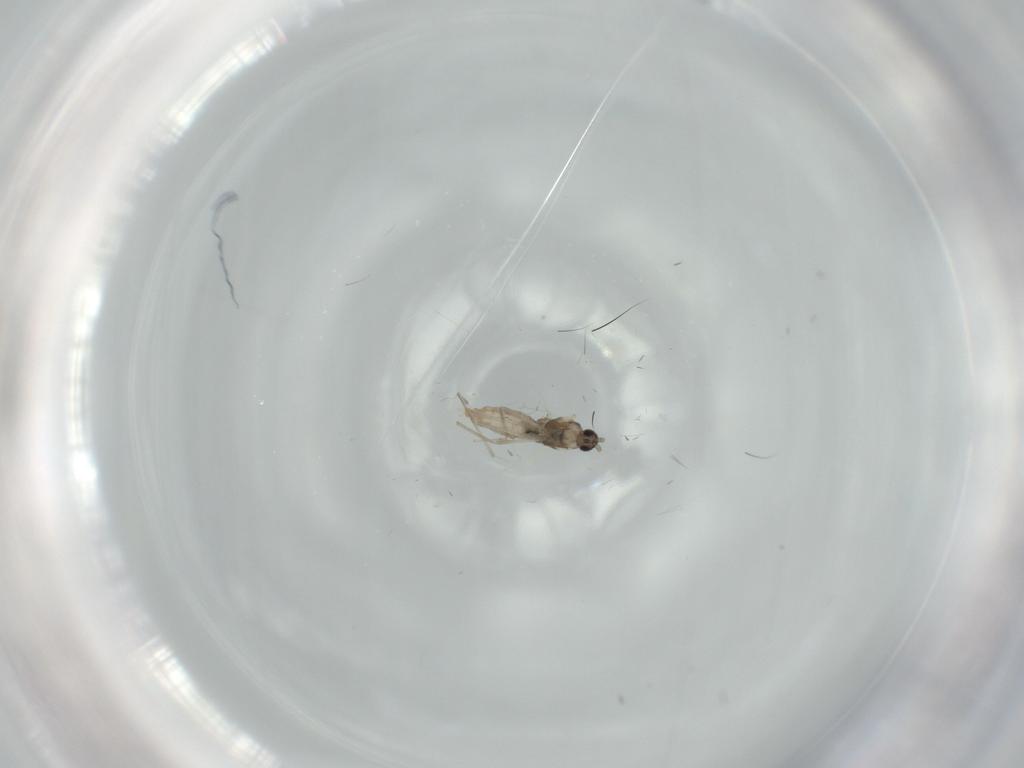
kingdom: Animalia
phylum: Arthropoda
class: Insecta
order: Diptera
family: Cecidomyiidae
